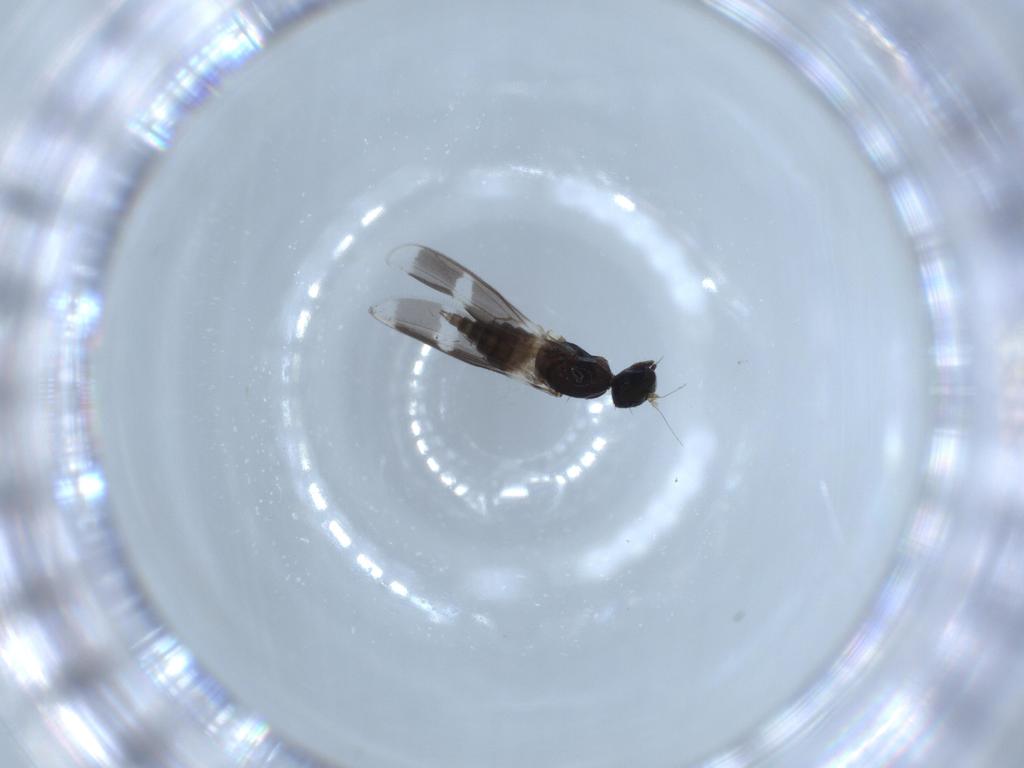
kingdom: Animalia
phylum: Arthropoda
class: Insecta
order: Diptera
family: Hybotidae
